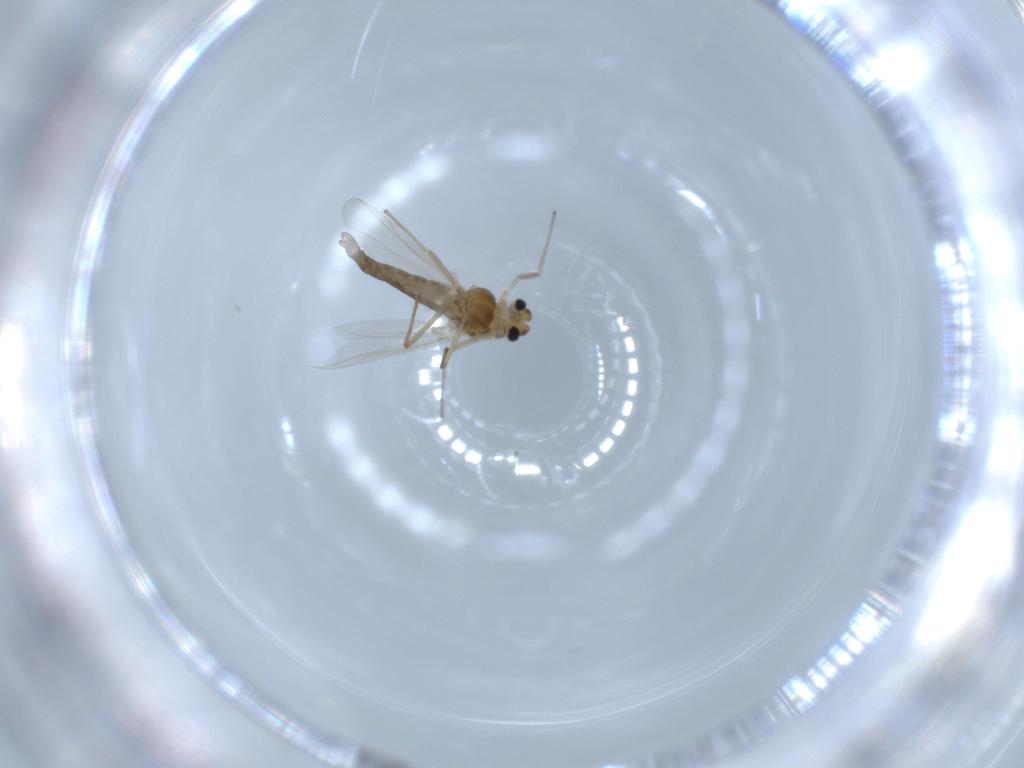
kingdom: Animalia
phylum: Arthropoda
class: Insecta
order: Diptera
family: Chironomidae
